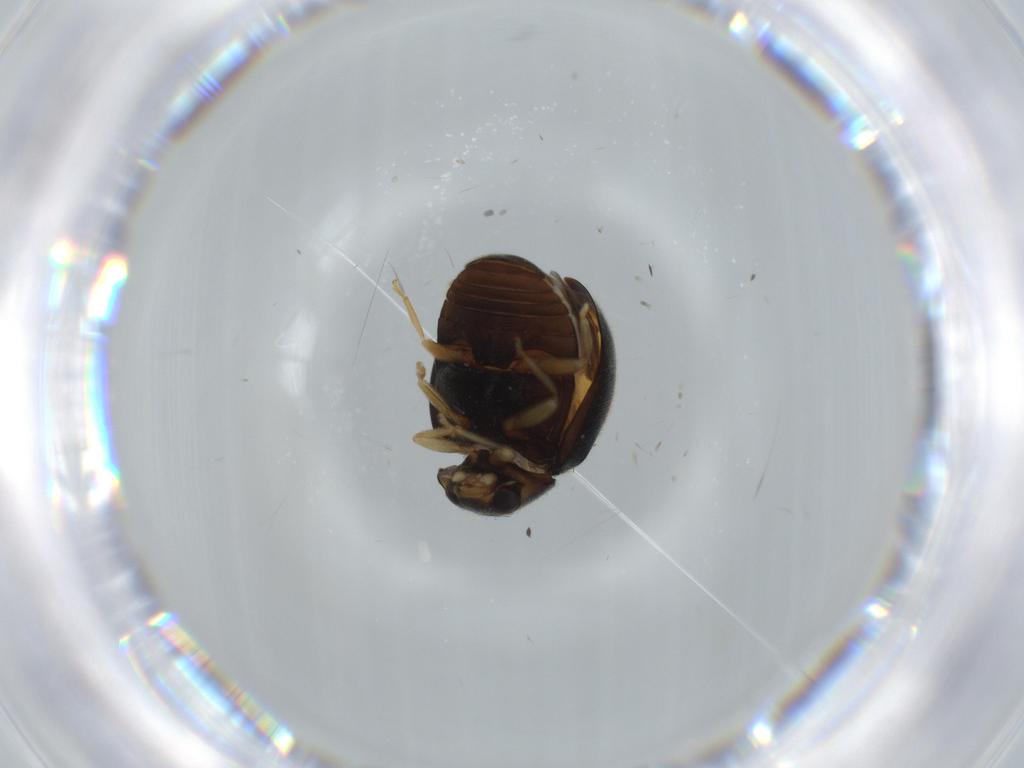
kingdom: Animalia
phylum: Arthropoda
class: Insecta
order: Coleoptera
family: Coccinellidae
